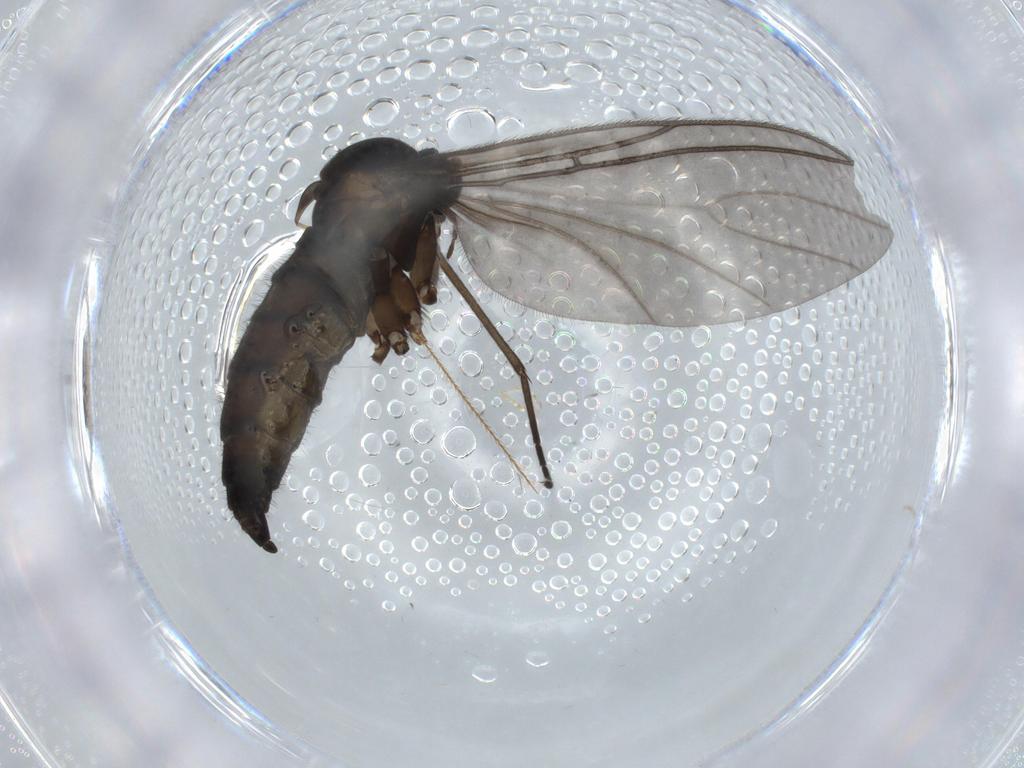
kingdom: Animalia
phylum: Arthropoda
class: Insecta
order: Diptera
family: Sciaridae
